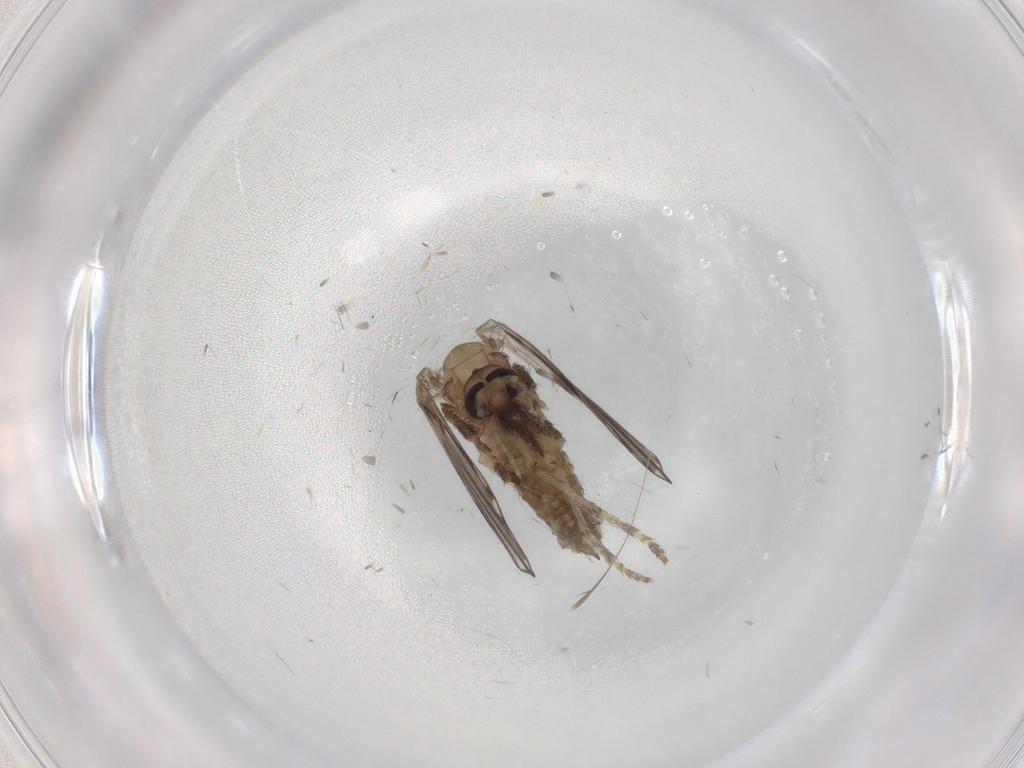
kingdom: Animalia
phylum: Arthropoda
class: Insecta
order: Diptera
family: Psychodidae
